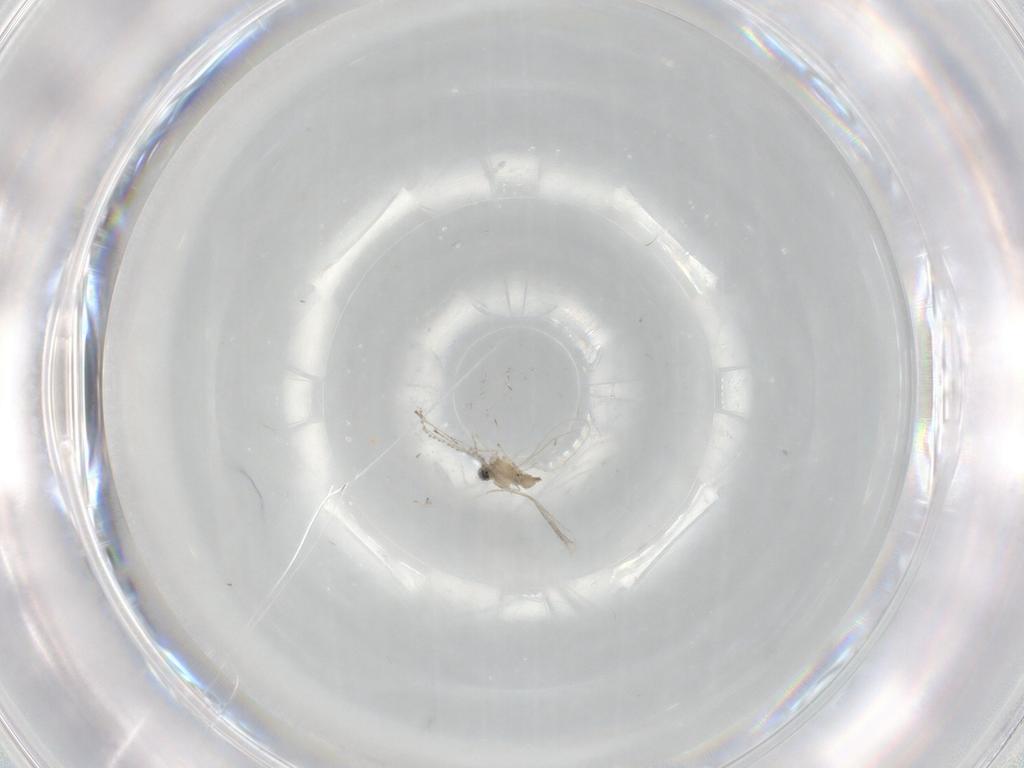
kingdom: Animalia
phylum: Arthropoda
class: Insecta
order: Diptera
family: Cecidomyiidae
